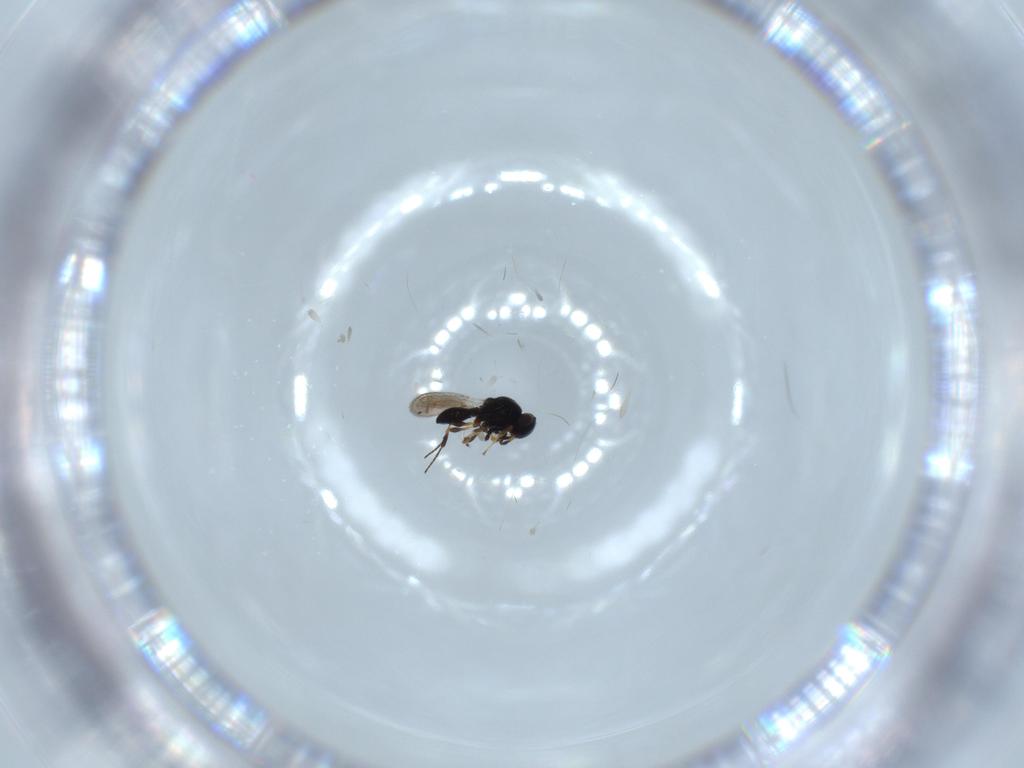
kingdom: Animalia
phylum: Arthropoda
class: Insecta
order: Hymenoptera
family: Platygastridae
